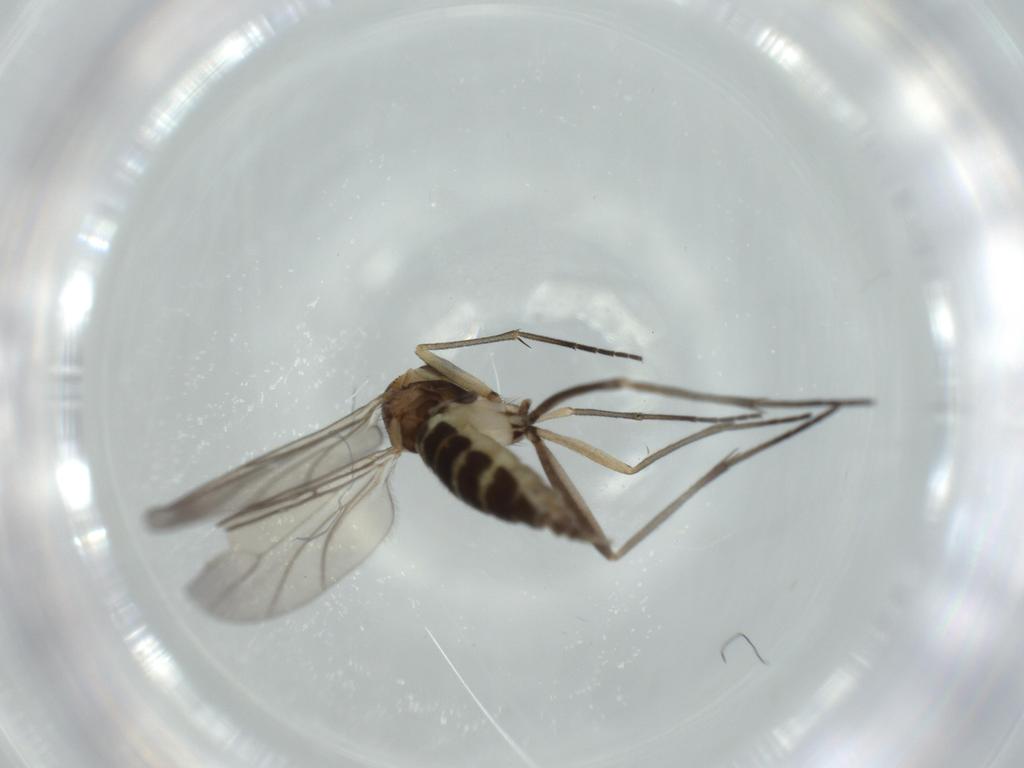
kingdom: Animalia
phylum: Arthropoda
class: Insecta
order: Diptera
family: Sciaridae
